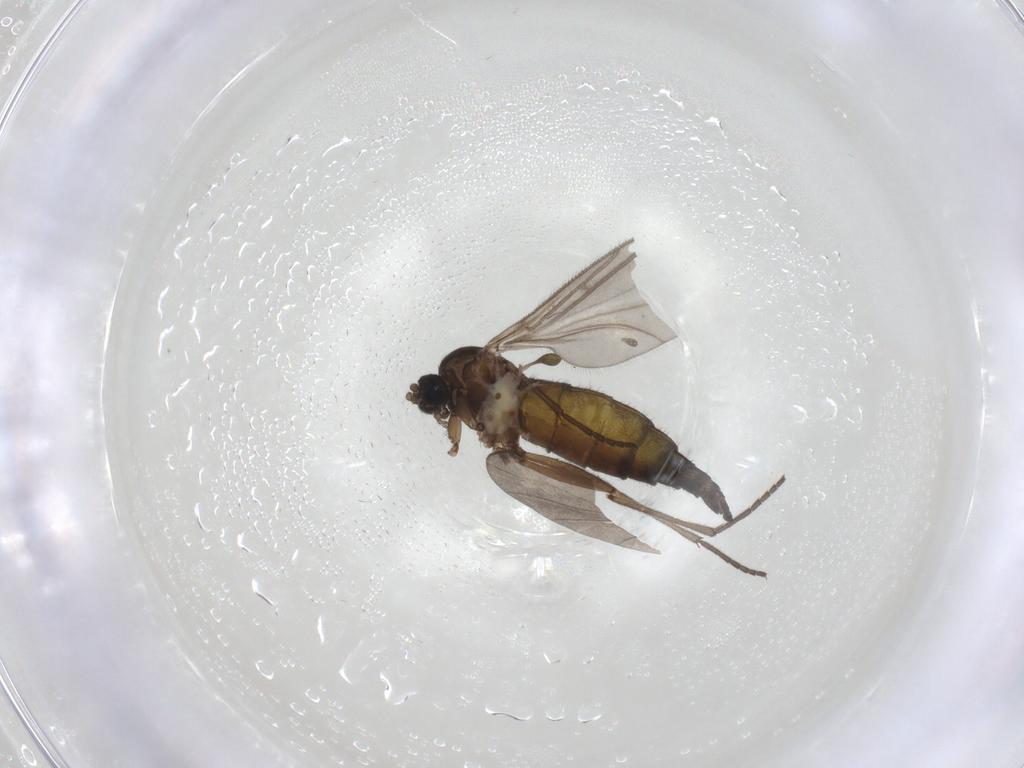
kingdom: Animalia
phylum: Arthropoda
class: Insecta
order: Diptera
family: Sciaridae
